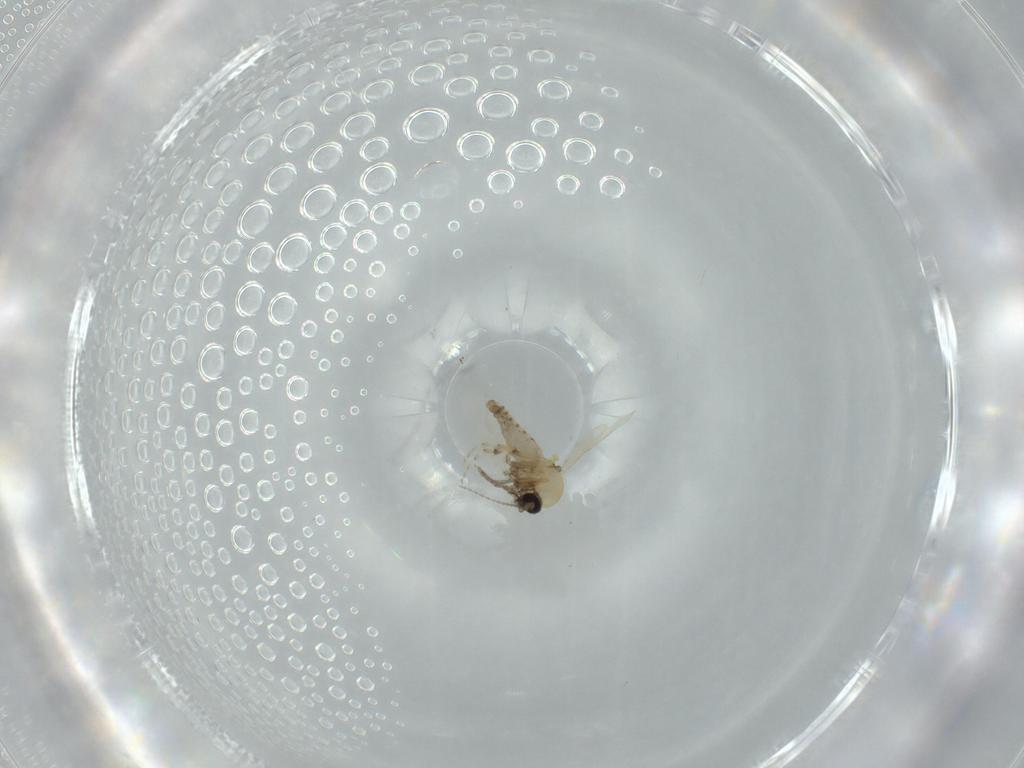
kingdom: Animalia
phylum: Arthropoda
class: Insecta
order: Diptera
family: Ceratopogonidae
